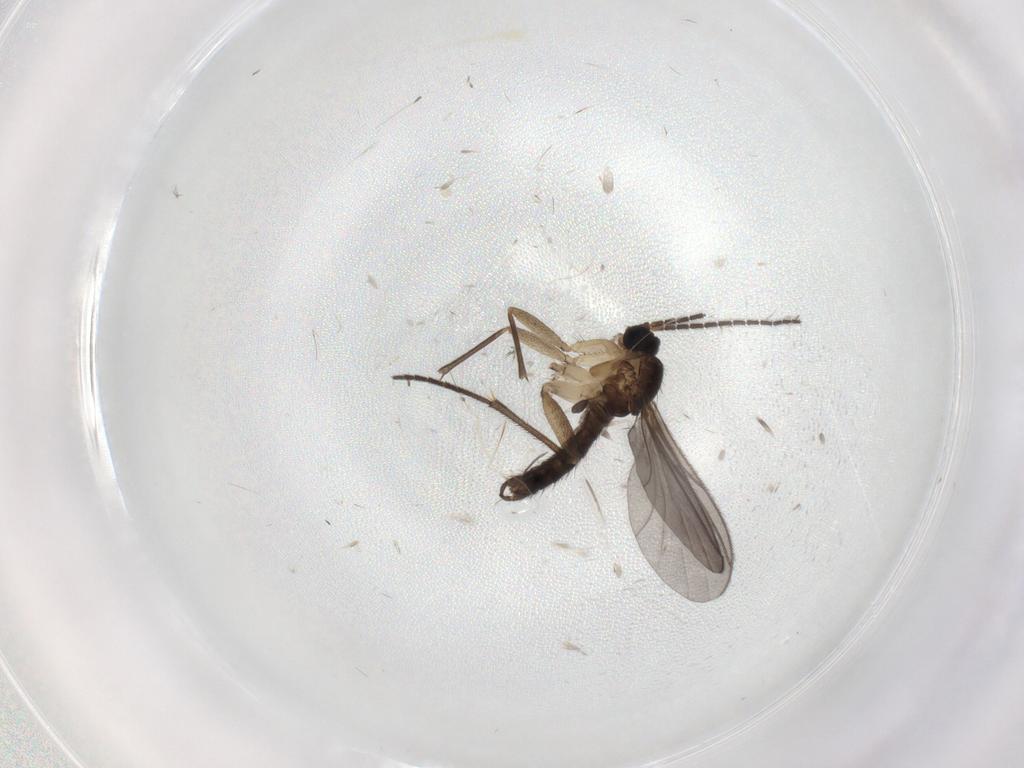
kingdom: Animalia
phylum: Arthropoda
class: Insecta
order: Diptera
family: Sciaridae
